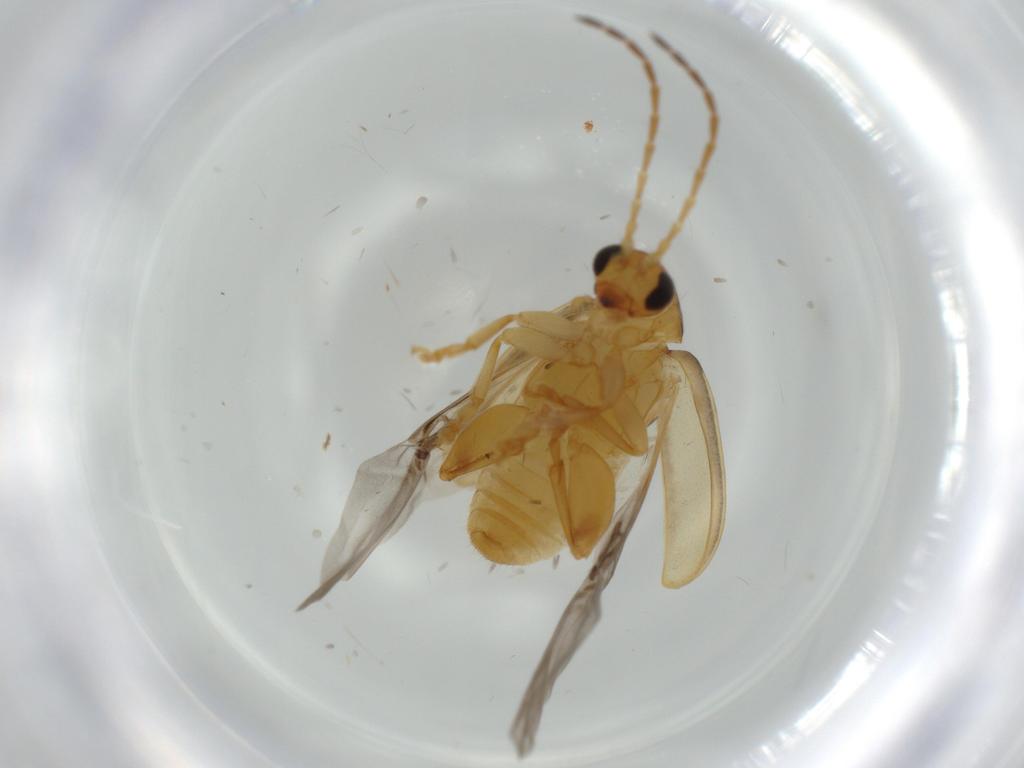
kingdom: Animalia
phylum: Arthropoda
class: Insecta
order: Coleoptera
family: Chrysomelidae
